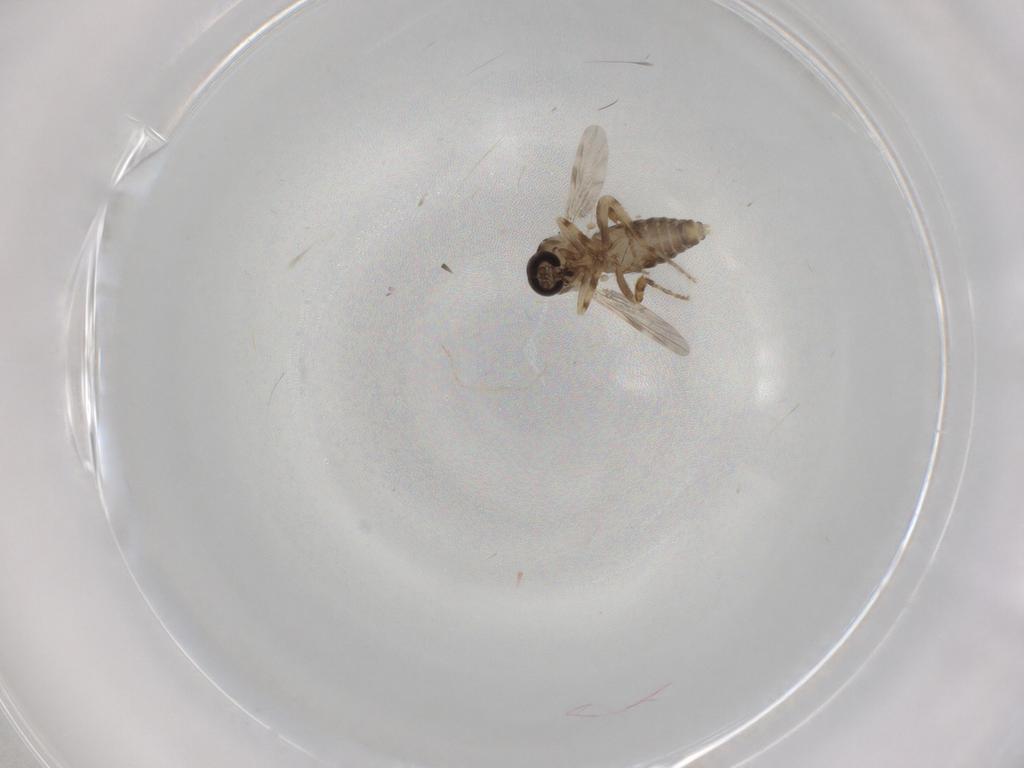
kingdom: Animalia
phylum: Arthropoda
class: Insecta
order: Diptera
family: Ceratopogonidae
